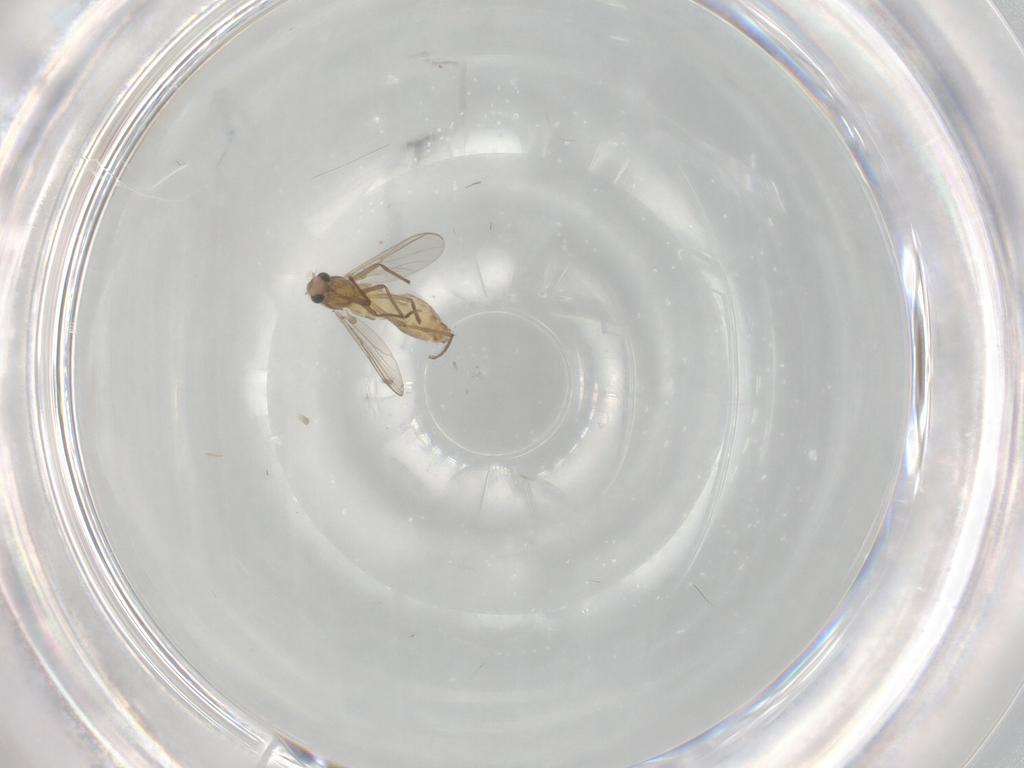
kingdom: Animalia
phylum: Arthropoda
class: Insecta
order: Diptera
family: Chironomidae
